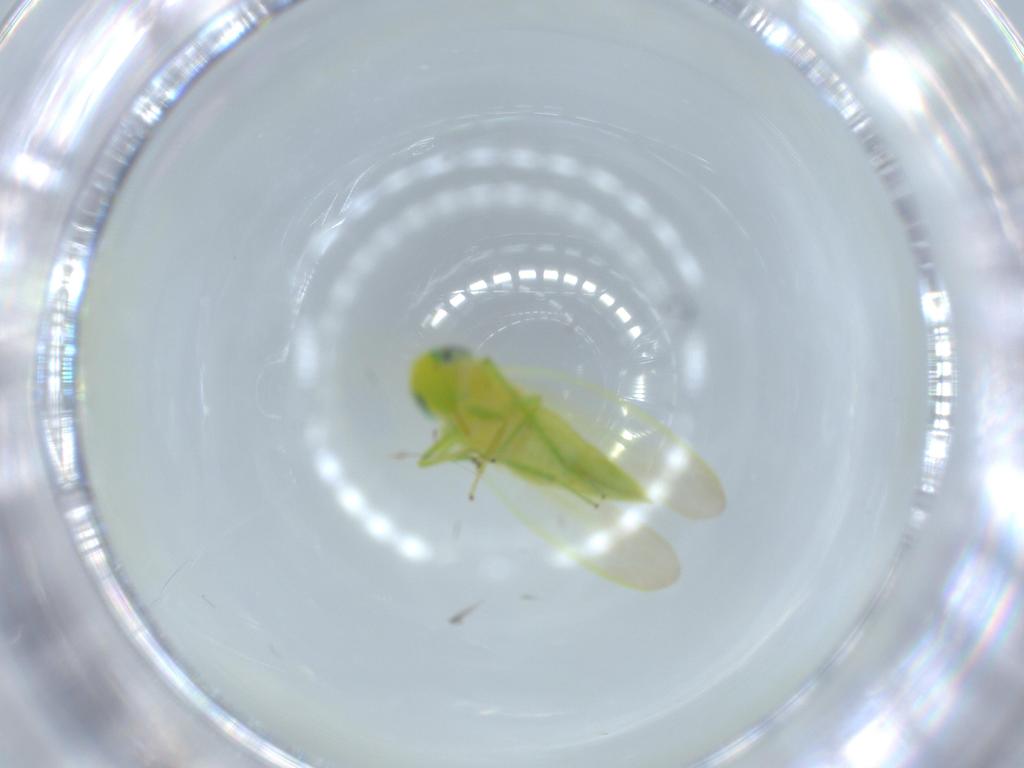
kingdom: Animalia
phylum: Arthropoda
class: Insecta
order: Hemiptera
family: Cicadellidae
